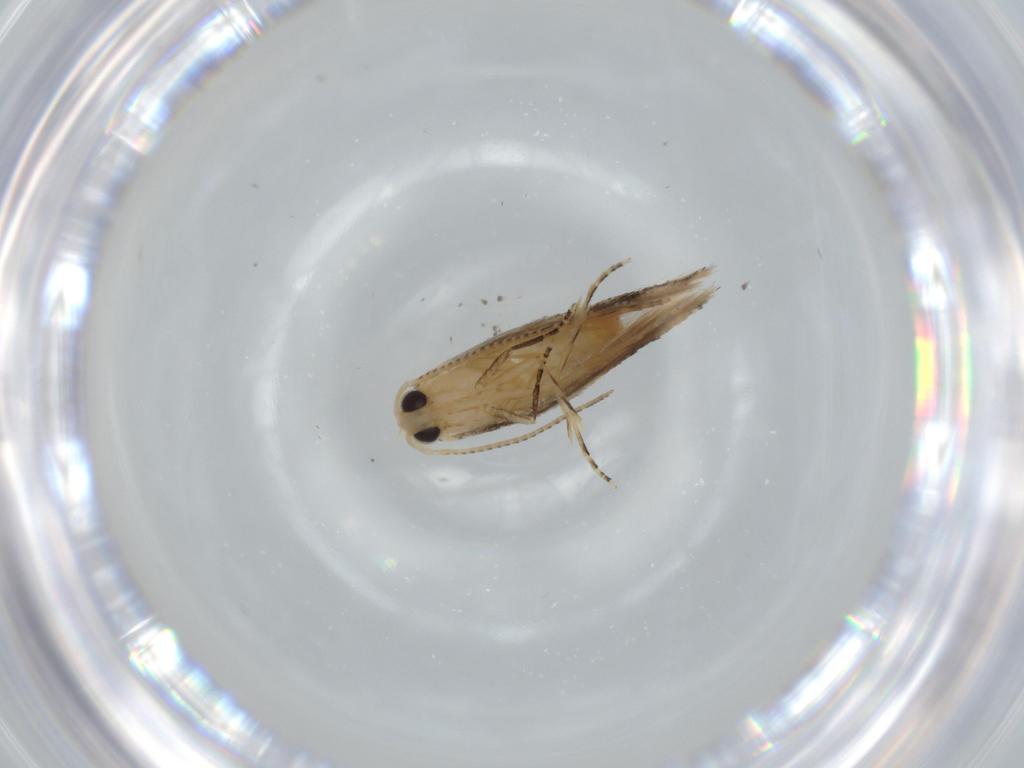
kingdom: Animalia
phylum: Arthropoda
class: Insecta
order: Lepidoptera
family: Bucculatricidae
